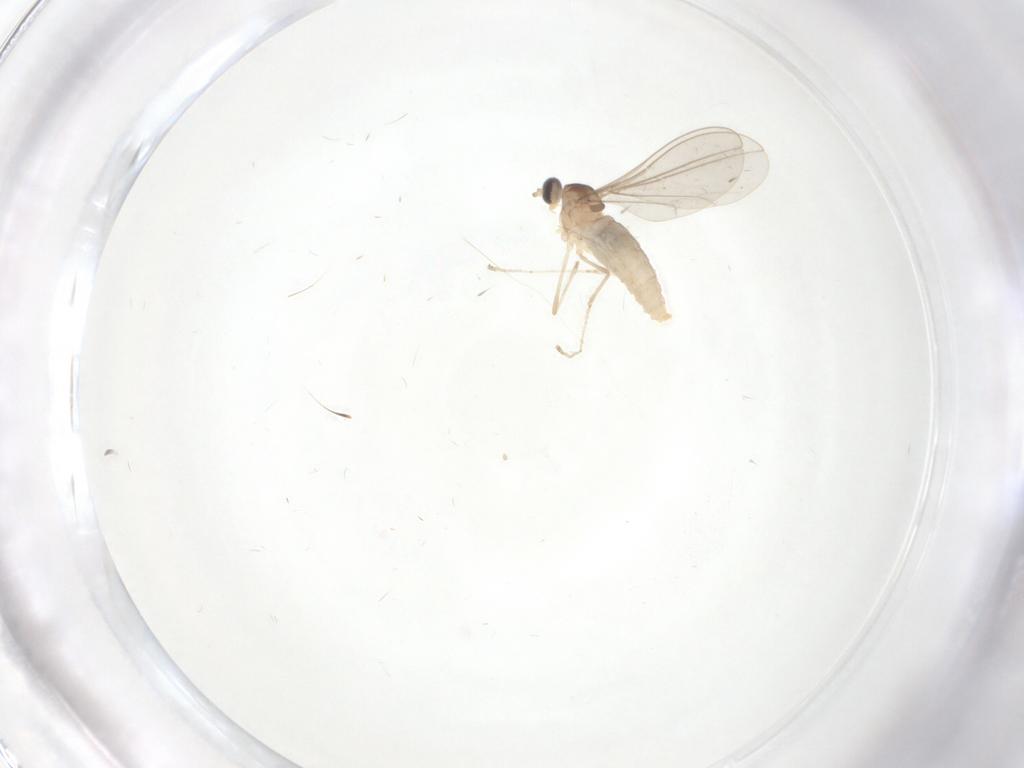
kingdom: Animalia
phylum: Arthropoda
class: Insecta
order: Diptera
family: Cecidomyiidae
